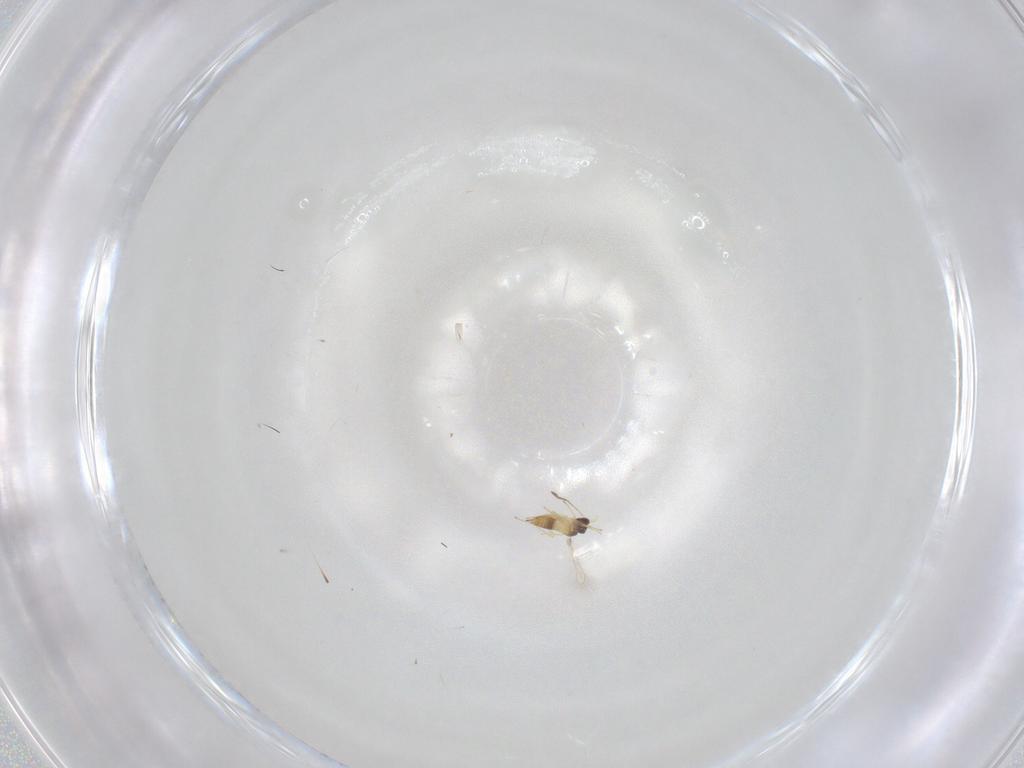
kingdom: Animalia
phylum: Arthropoda
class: Insecta
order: Hymenoptera
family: Mymaridae
